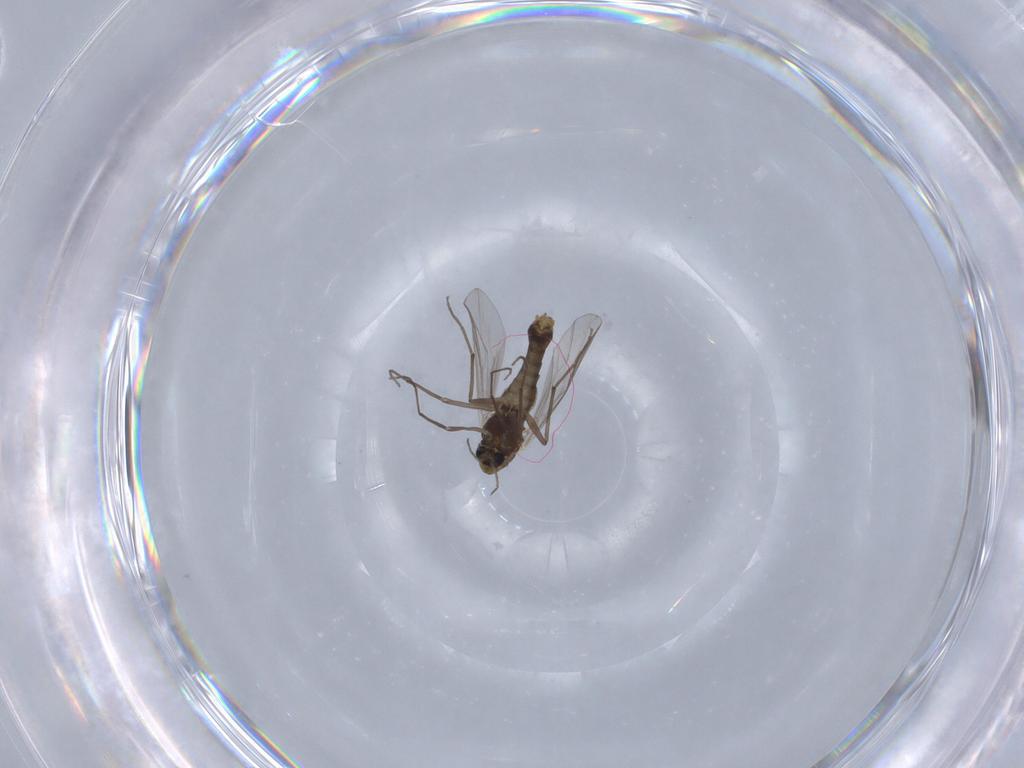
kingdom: Animalia
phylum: Arthropoda
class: Insecta
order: Diptera
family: Chironomidae
